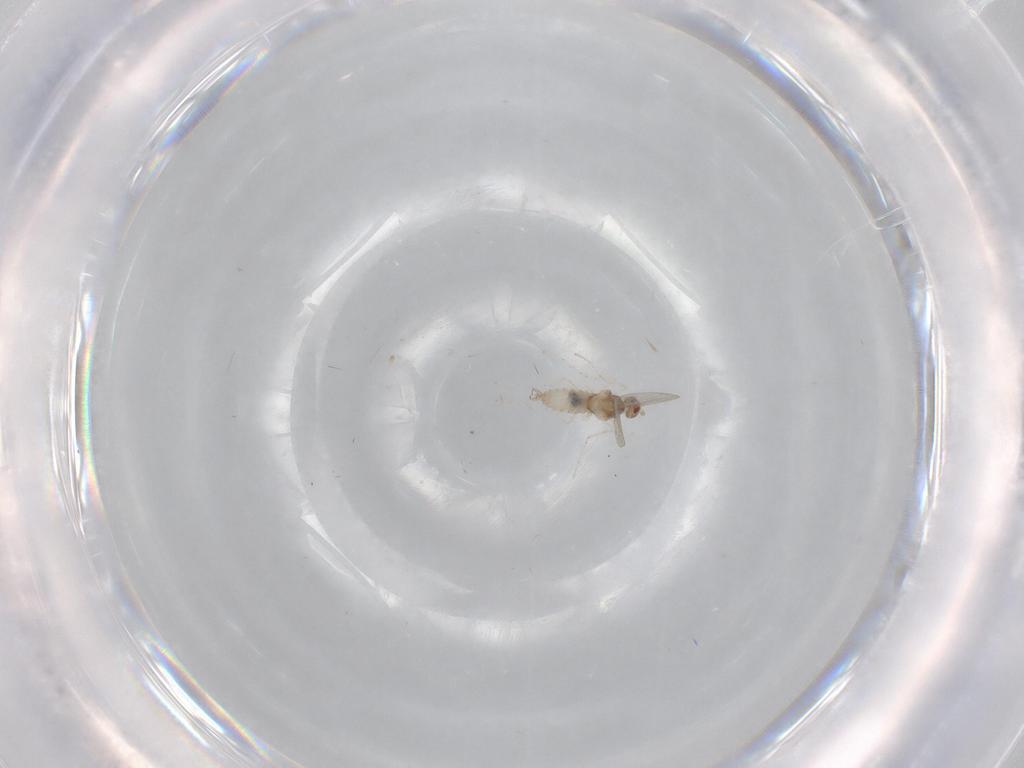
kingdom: Animalia
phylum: Arthropoda
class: Insecta
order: Diptera
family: Cecidomyiidae
